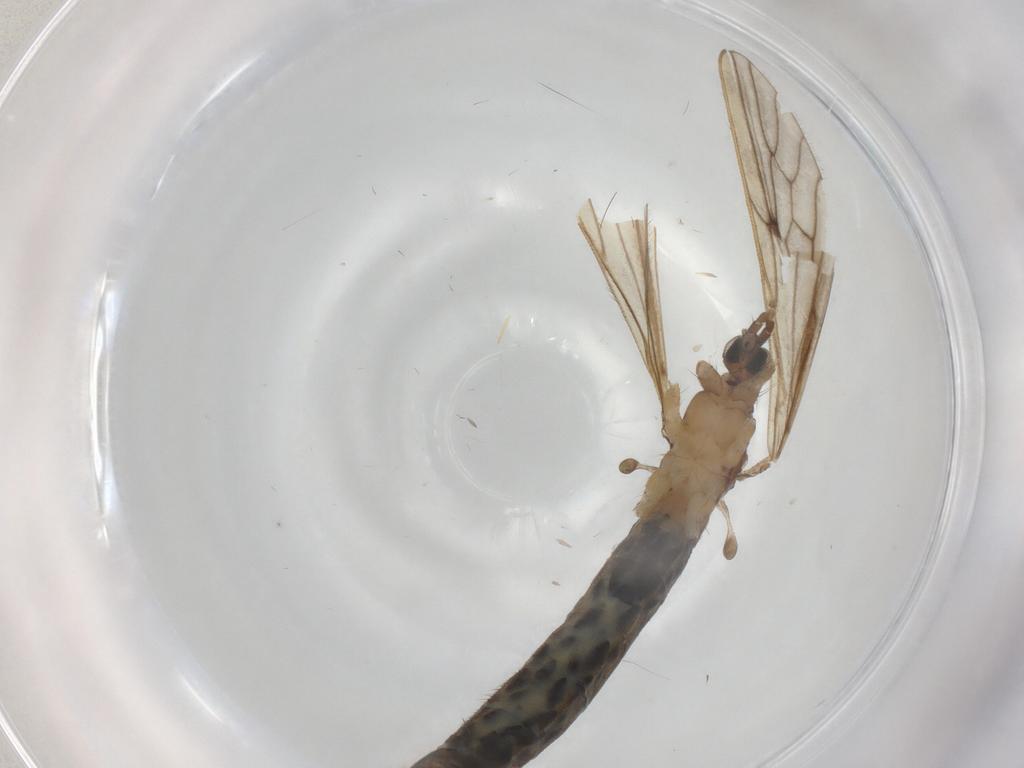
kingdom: Animalia
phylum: Arthropoda
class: Insecta
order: Diptera
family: Limoniidae
